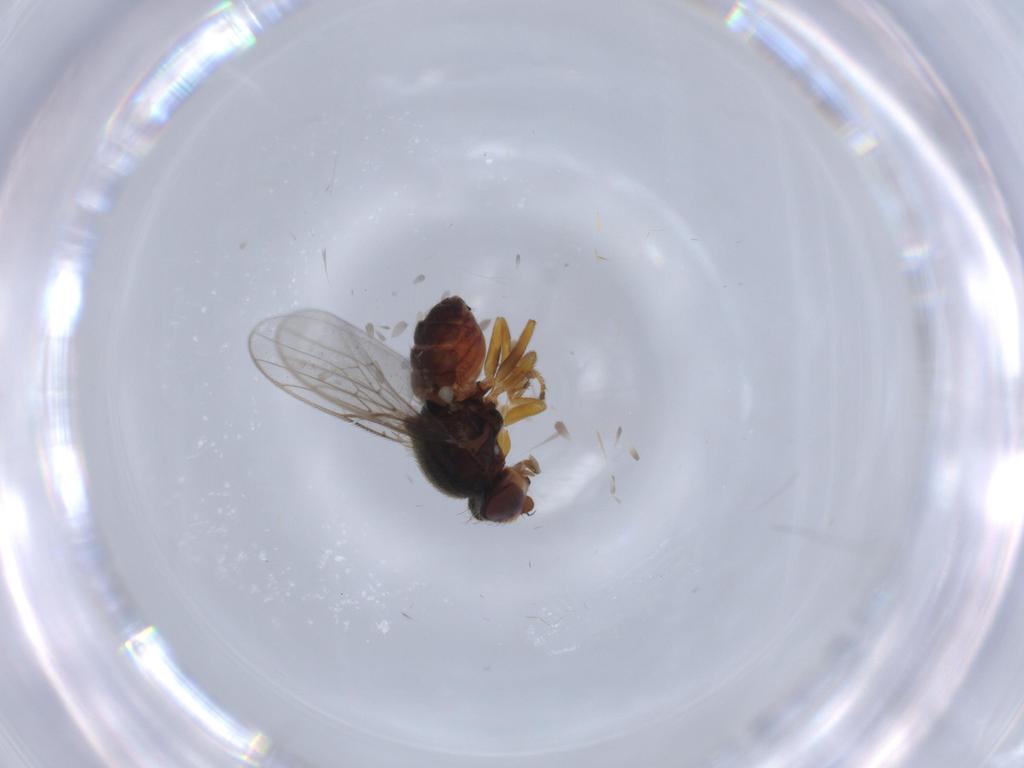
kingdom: Animalia
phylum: Arthropoda
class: Insecta
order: Diptera
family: Chloropidae
